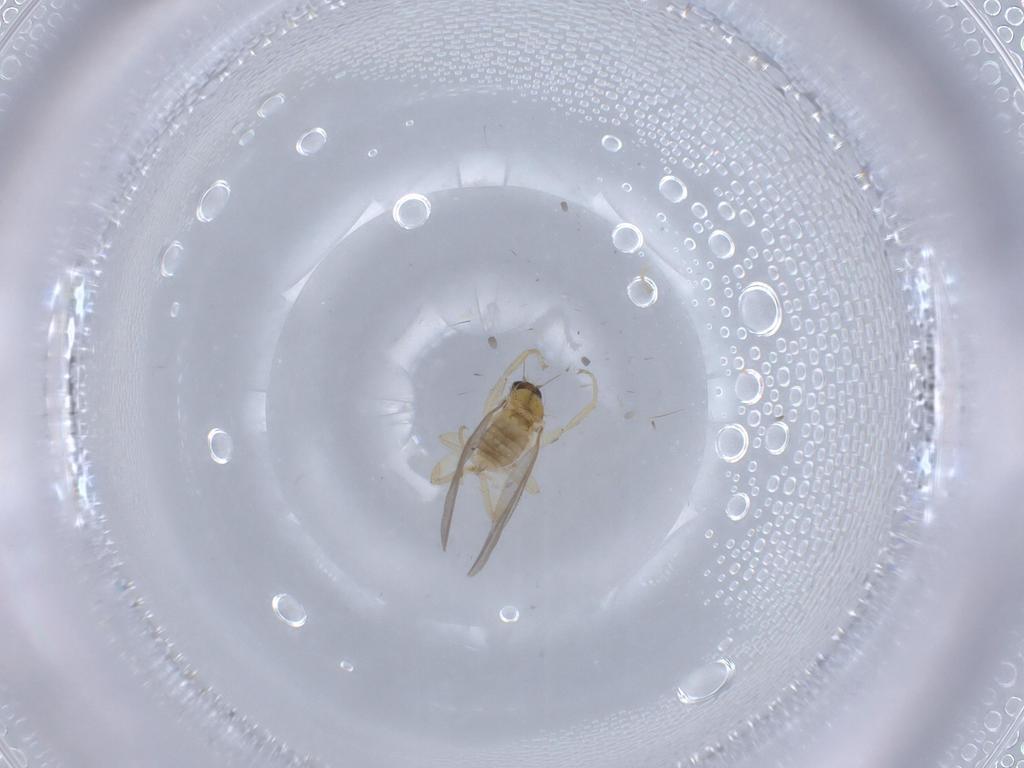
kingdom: Animalia
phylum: Arthropoda
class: Insecta
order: Diptera
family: Hybotidae
